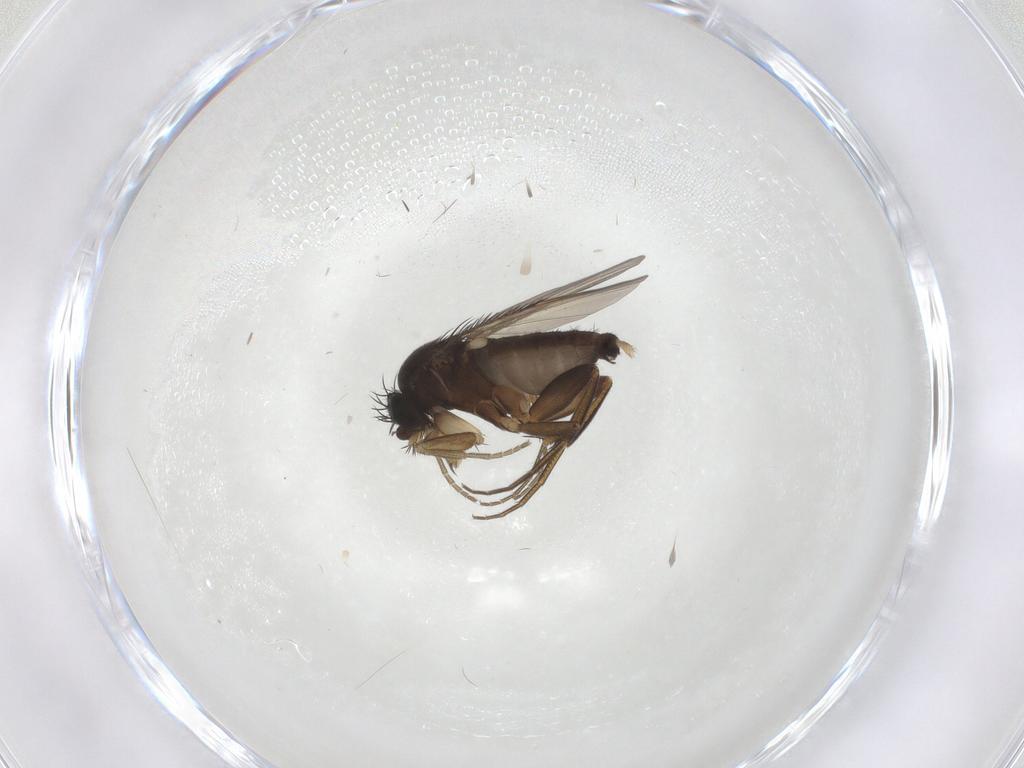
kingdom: Animalia
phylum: Arthropoda
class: Insecta
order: Diptera
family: Phoridae
